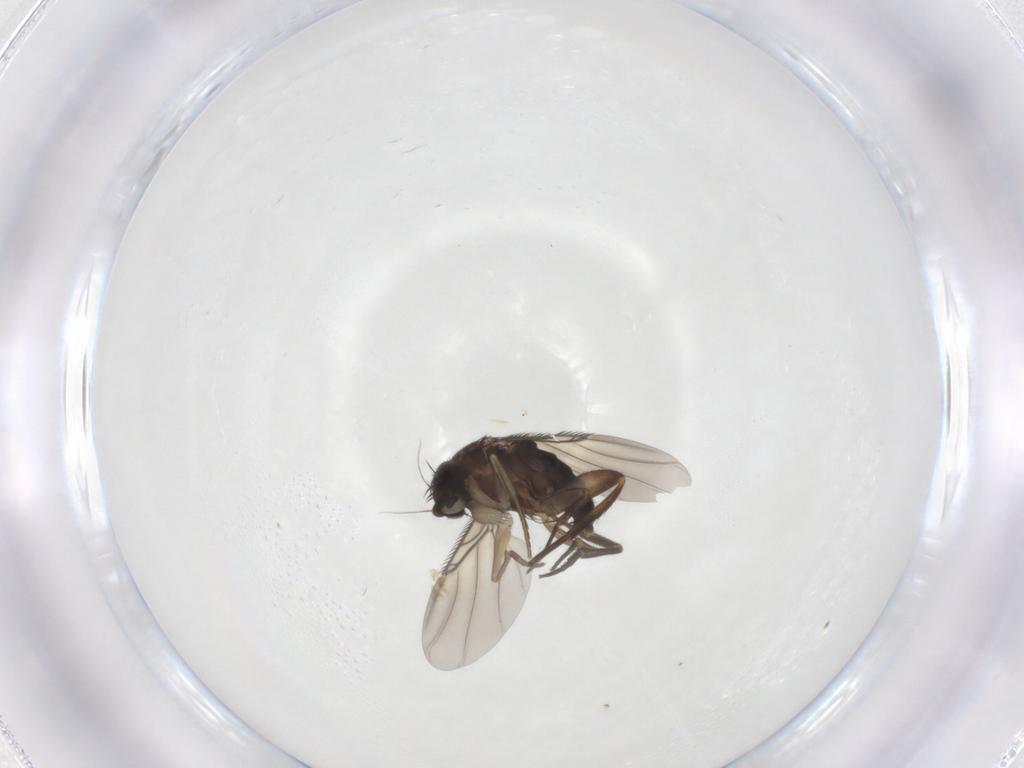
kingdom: Animalia
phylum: Arthropoda
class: Insecta
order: Diptera
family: Phoridae
